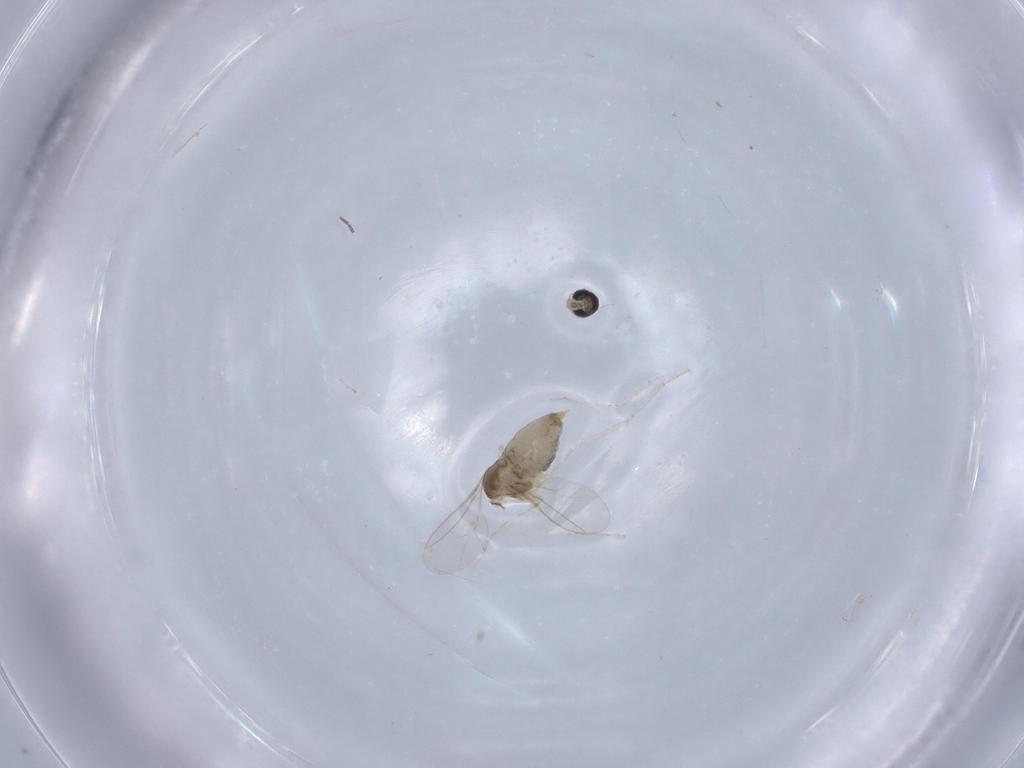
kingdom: Animalia
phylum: Arthropoda
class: Insecta
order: Diptera
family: Cecidomyiidae
